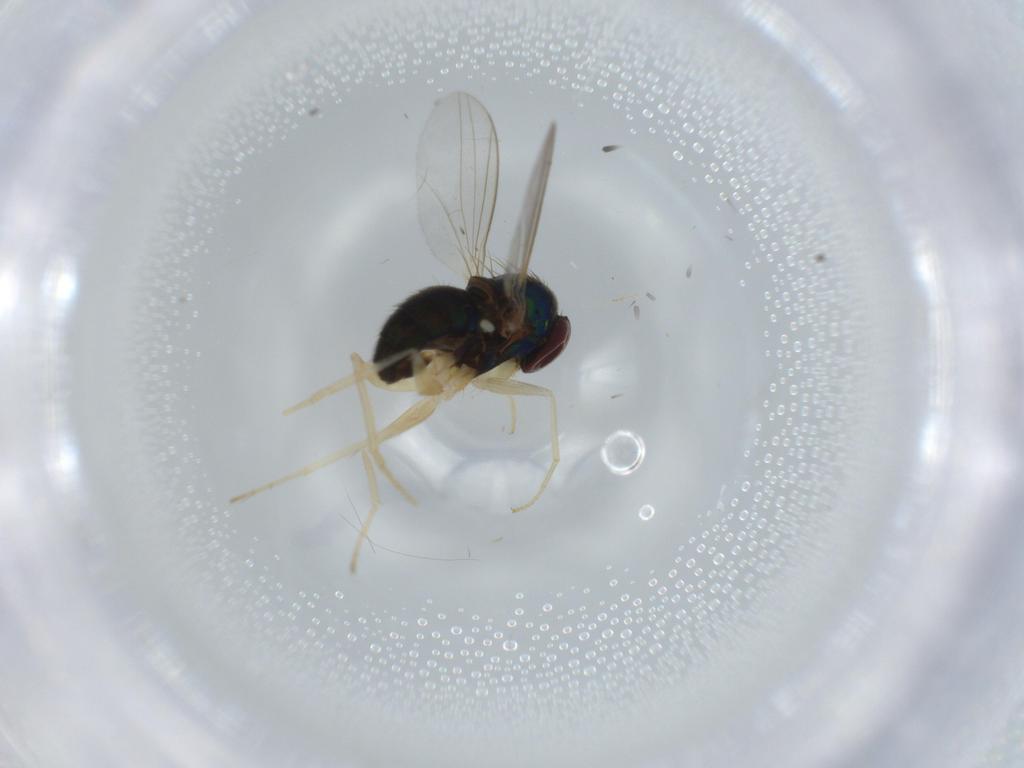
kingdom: Animalia
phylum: Arthropoda
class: Insecta
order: Diptera
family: Dolichopodidae
